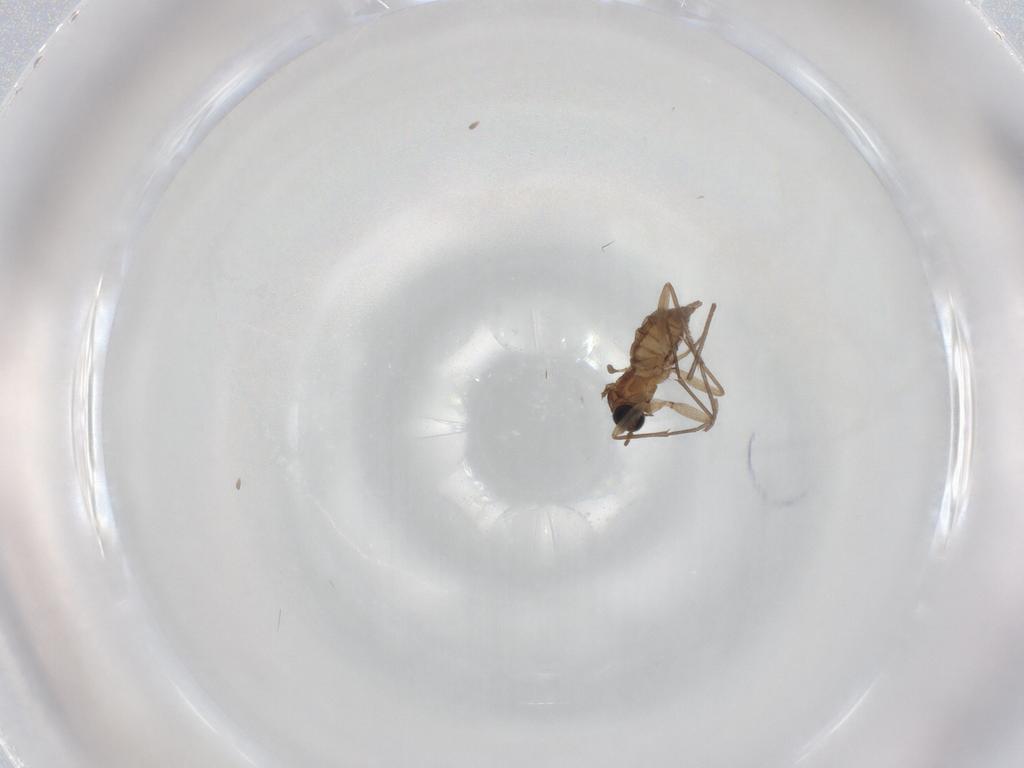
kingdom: Animalia
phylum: Arthropoda
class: Insecta
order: Diptera
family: Sciaridae
